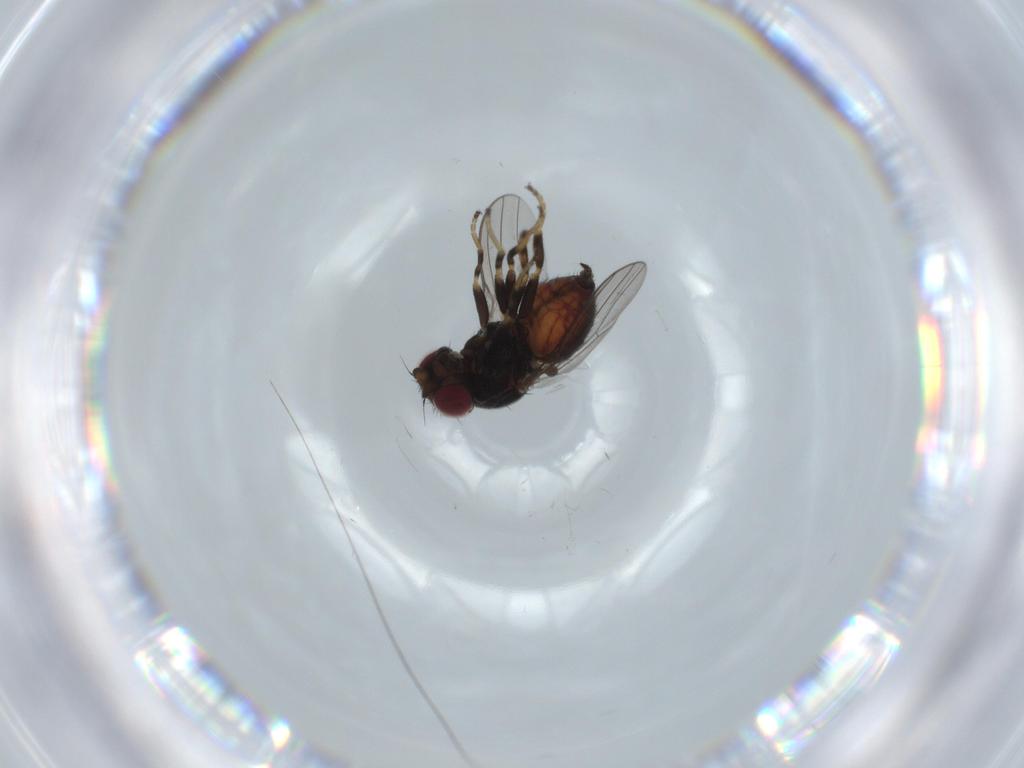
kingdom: Animalia
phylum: Arthropoda
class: Insecta
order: Diptera
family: Chloropidae
